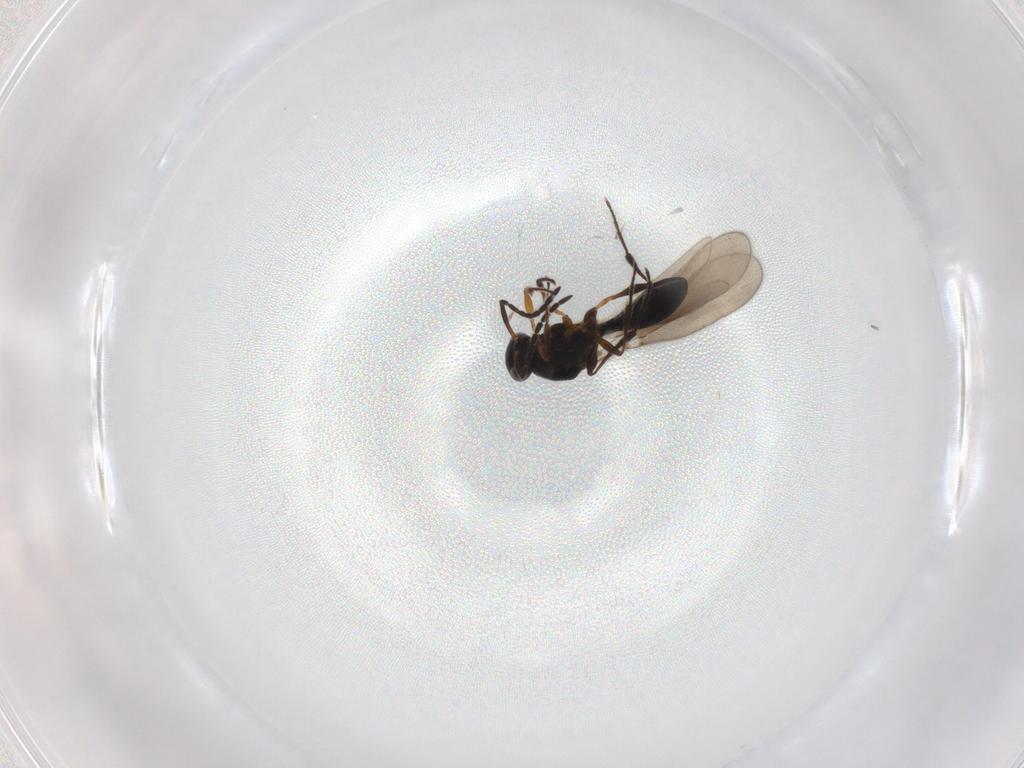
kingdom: Animalia
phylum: Arthropoda
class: Insecta
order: Hymenoptera
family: Platygastridae
